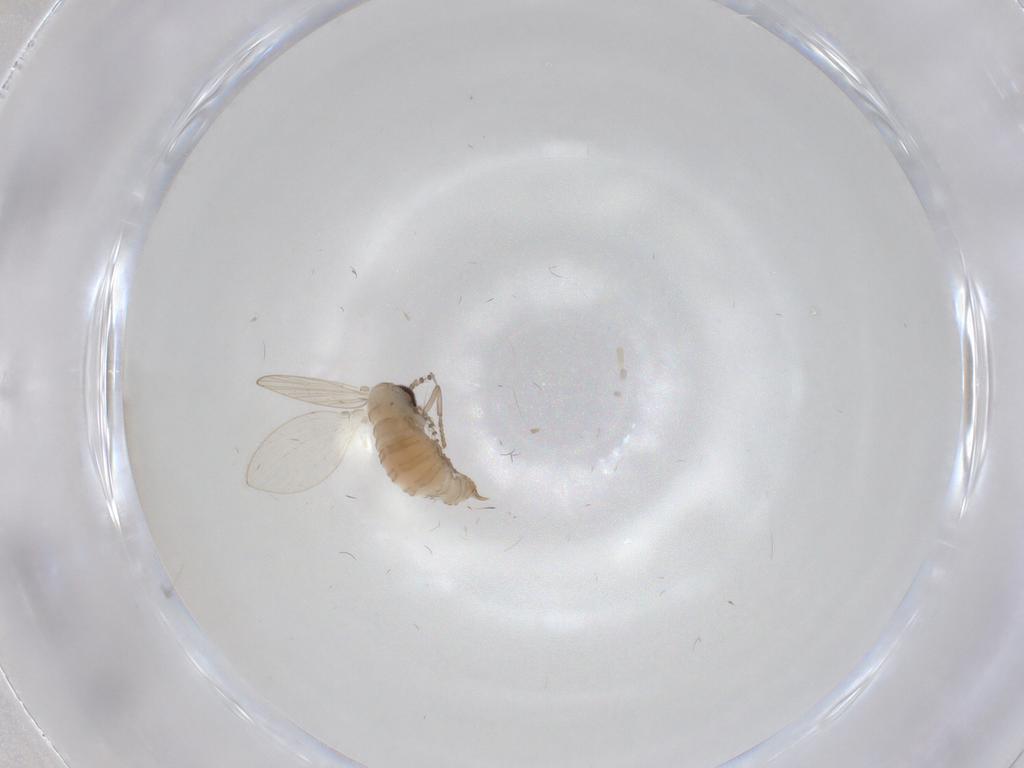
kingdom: Animalia
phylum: Arthropoda
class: Insecta
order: Diptera
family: Psychodidae
